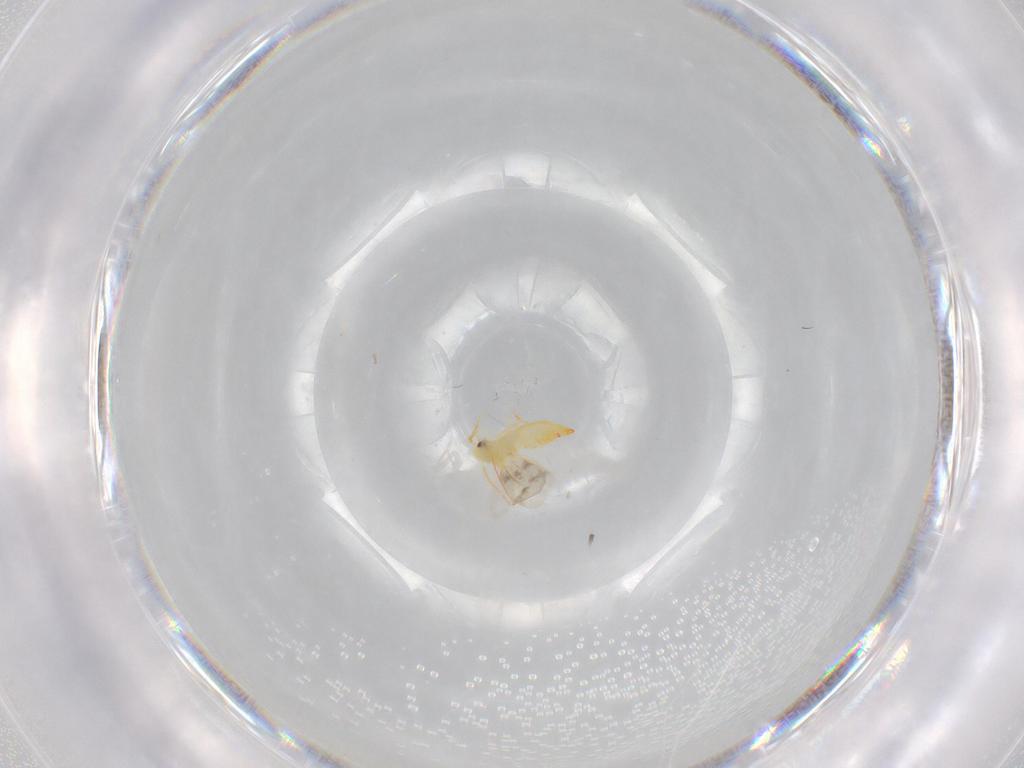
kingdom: Animalia
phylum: Arthropoda
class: Insecta
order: Hemiptera
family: Aleyrodidae
